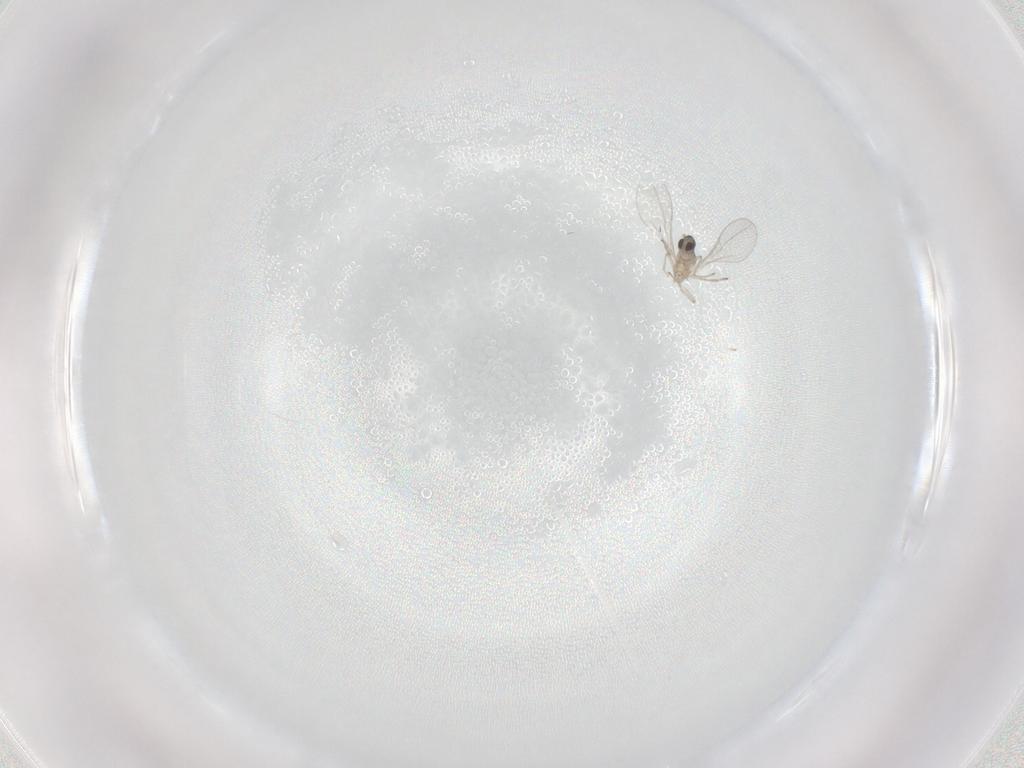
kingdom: Animalia
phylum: Arthropoda
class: Insecta
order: Diptera
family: Cecidomyiidae
